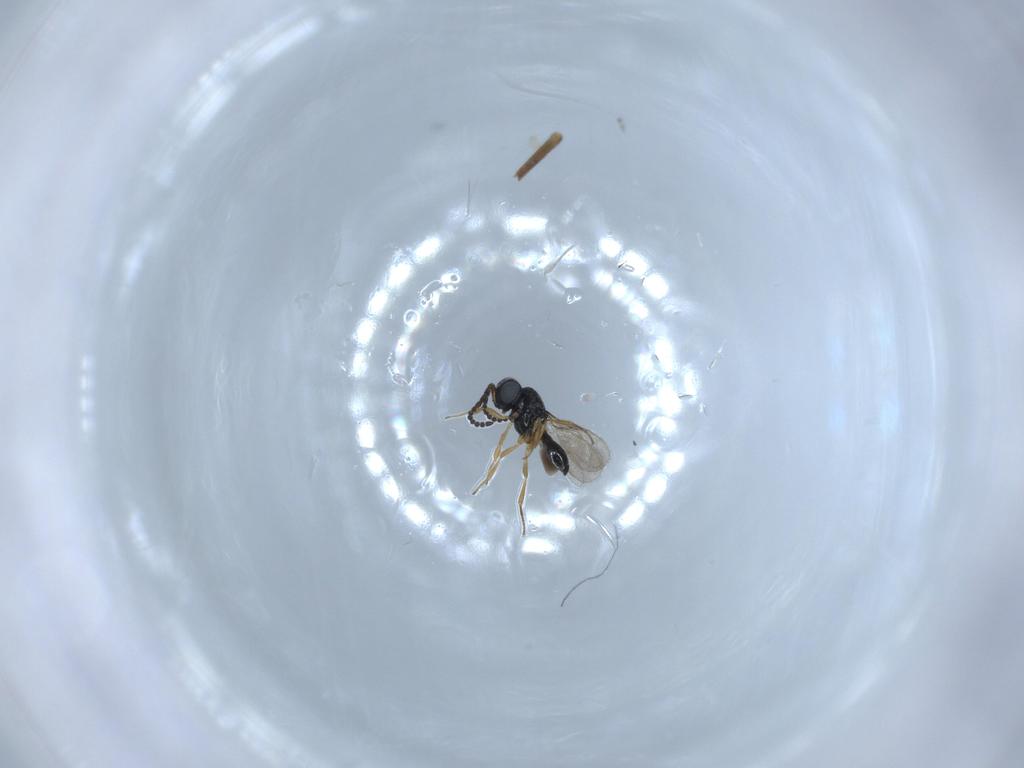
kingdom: Animalia
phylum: Arthropoda
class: Insecta
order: Hymenoptera
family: Scelionidae
